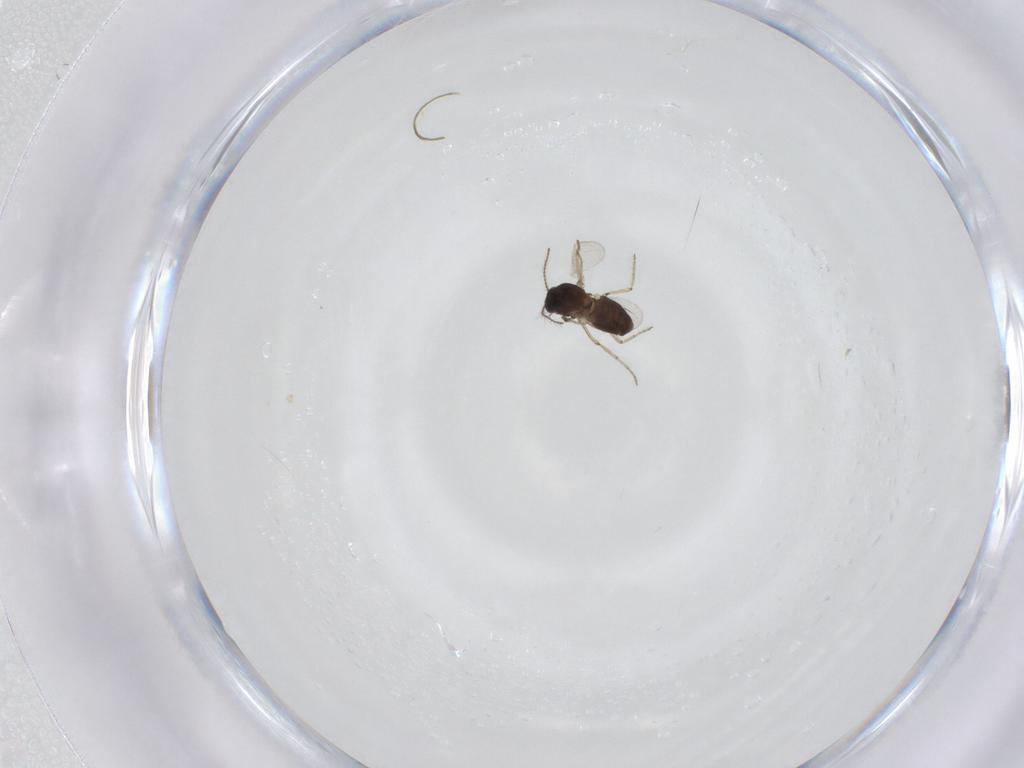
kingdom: Animalia
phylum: Arthropoda
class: Insecta
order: Diptera
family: Ceratopogonidae
